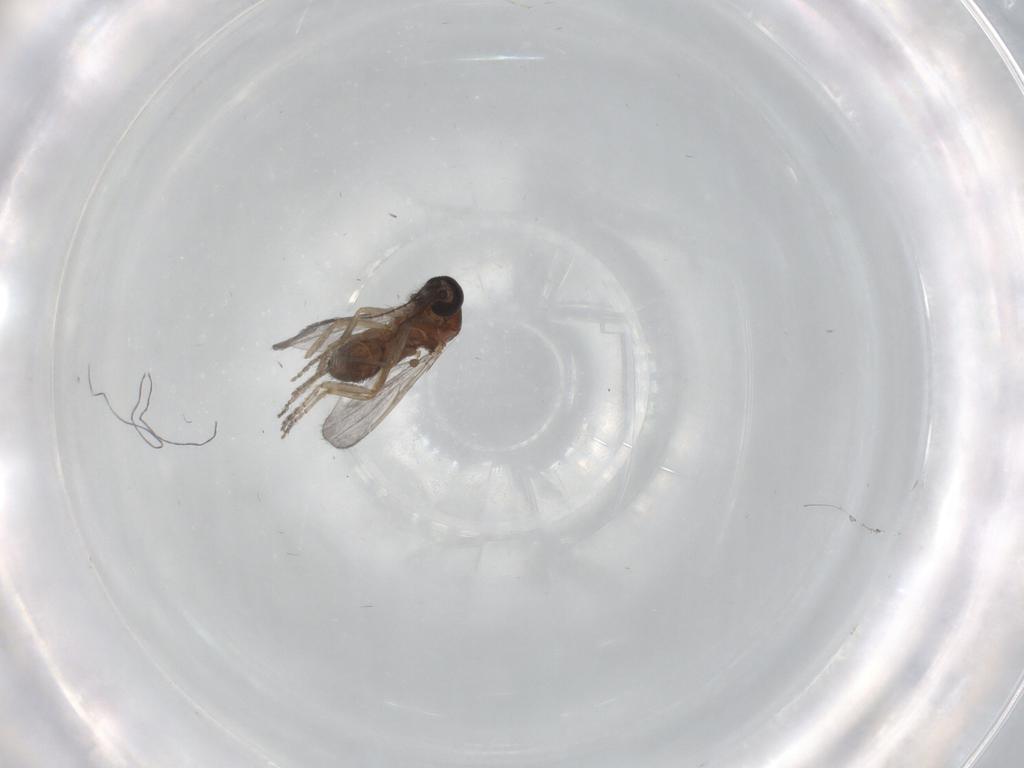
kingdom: Animalia
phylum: Arthropoda
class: Insecta
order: Diptera
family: Ceratopogonidae
